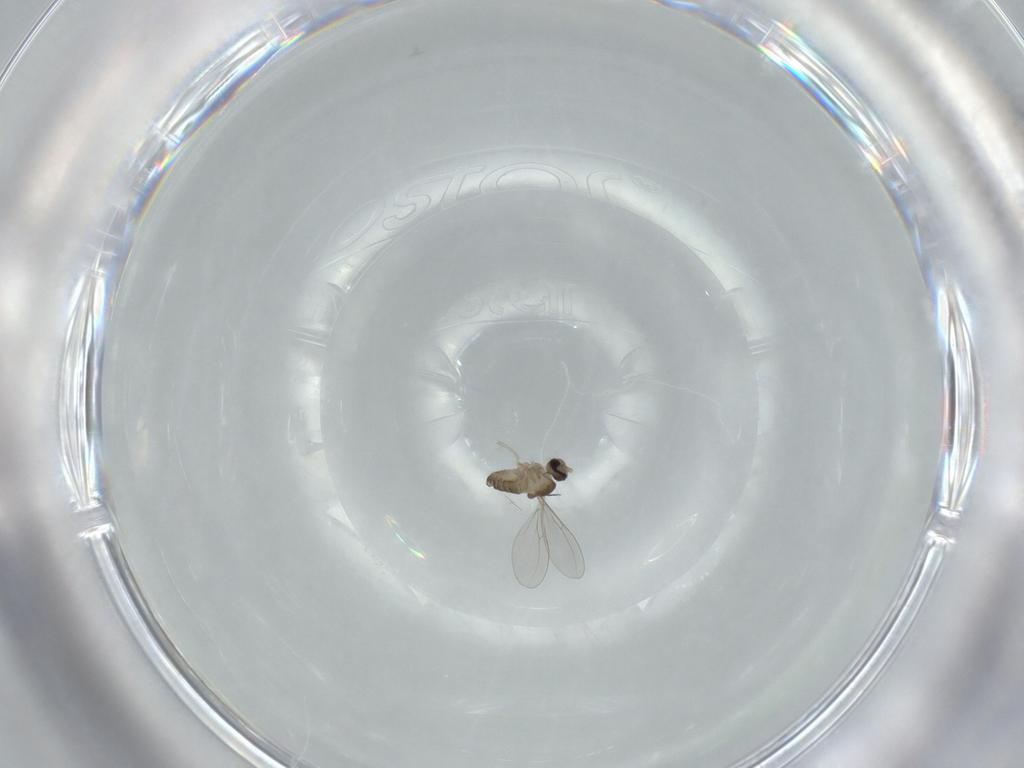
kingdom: Animalia
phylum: Arthropoda
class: Insecta
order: Diptera
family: Cecidomyiidae
